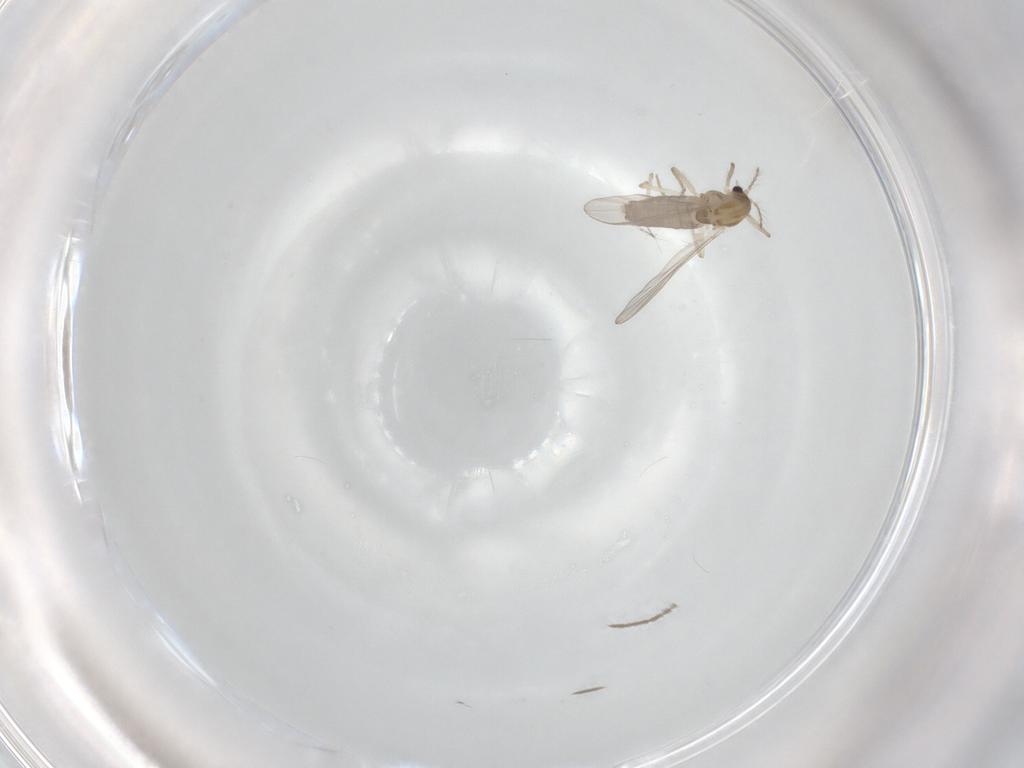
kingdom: Animalia
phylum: Arthropoda
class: Insecta
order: Diptera
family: Chironomidae
